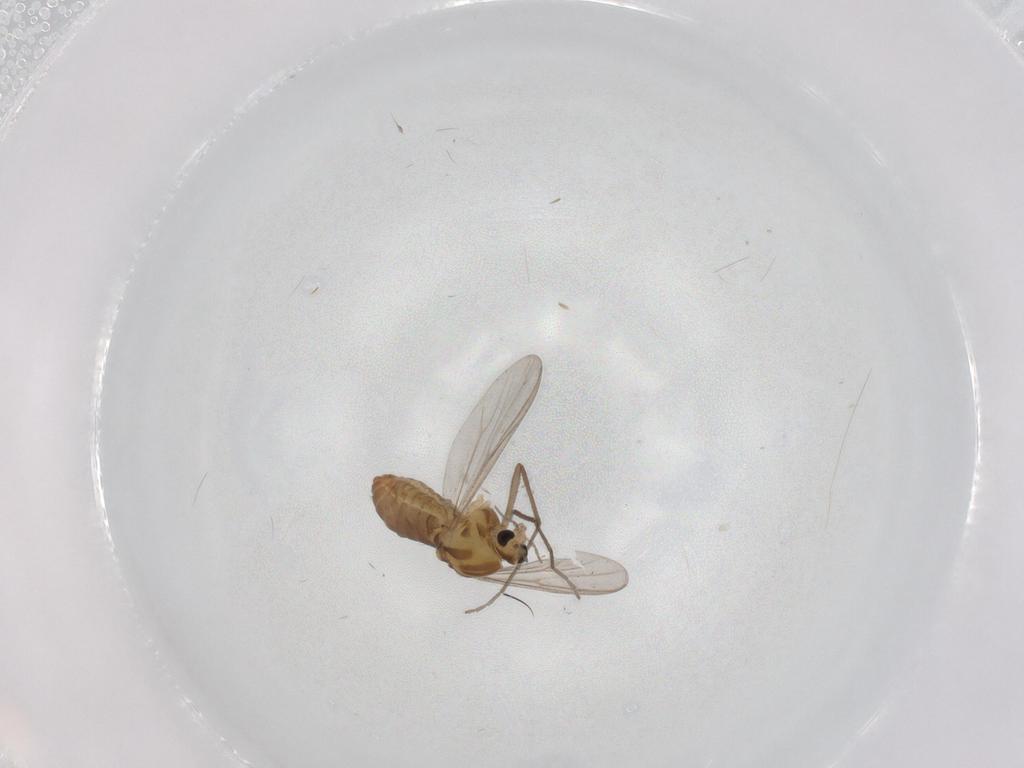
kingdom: Animalia
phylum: Arthropoda
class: Insecta
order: Diptera
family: Chironomidae
